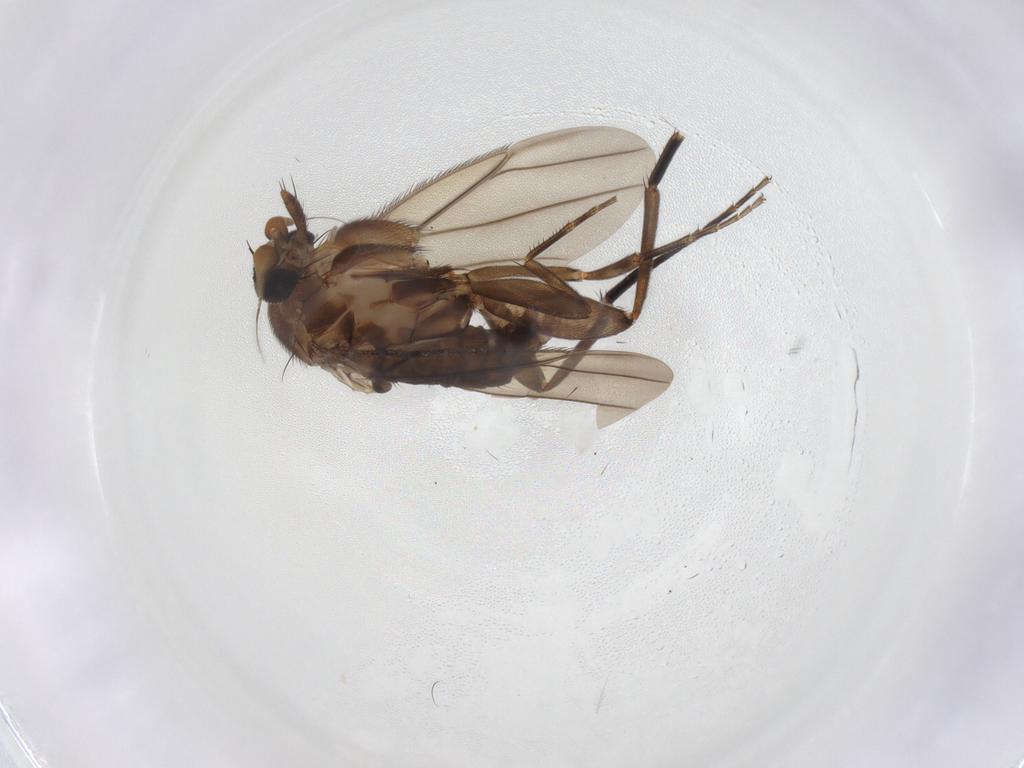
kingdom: Animalia
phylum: Arthropoda
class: Insecta
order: Diptera
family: Phoridae
